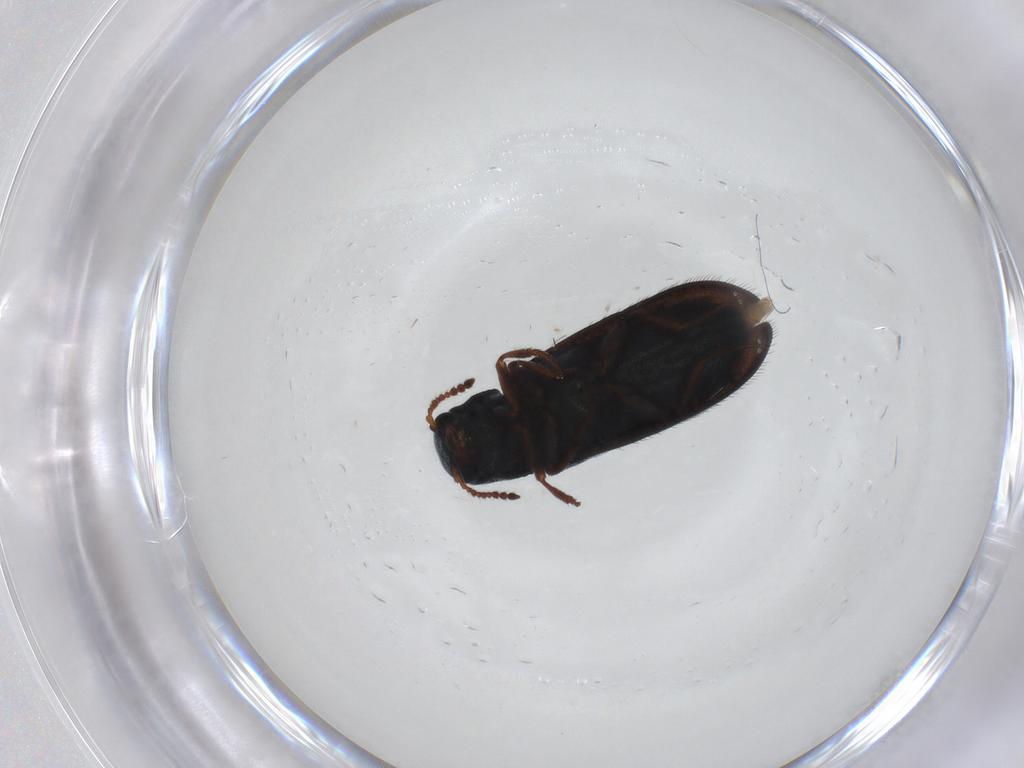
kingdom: Animalia
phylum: Arthropoda
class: Insecta
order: Coleoptera
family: Melyridae
